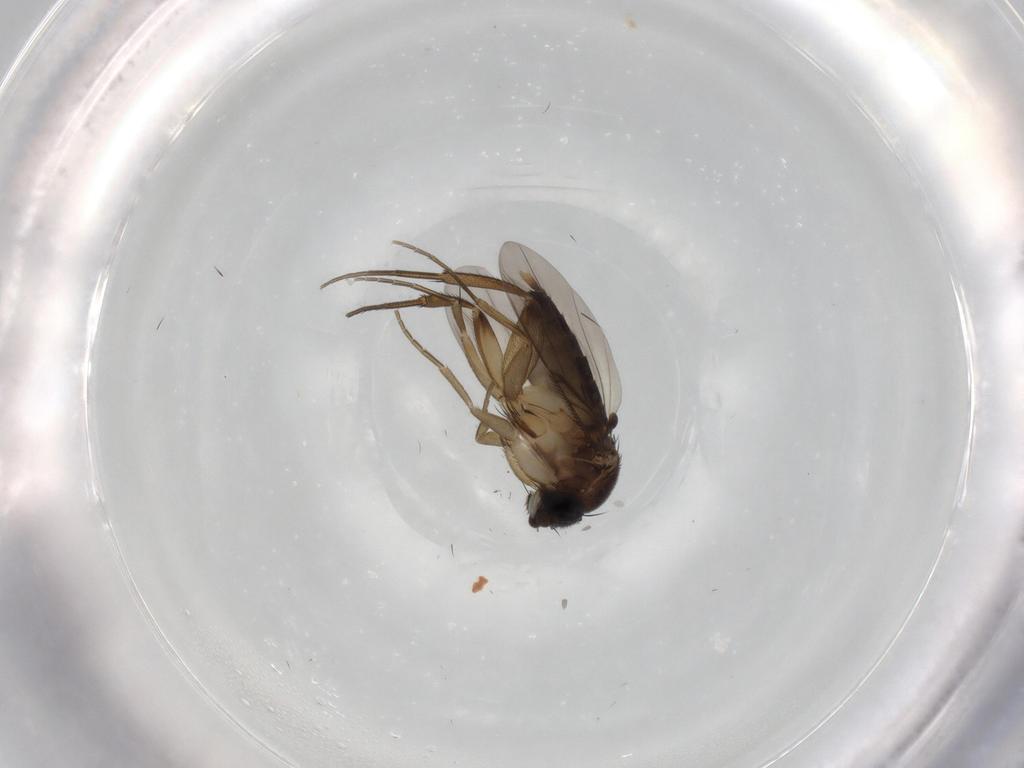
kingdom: Animalia
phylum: Arthropoda
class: Insecta
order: Diptera
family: Phoridae
